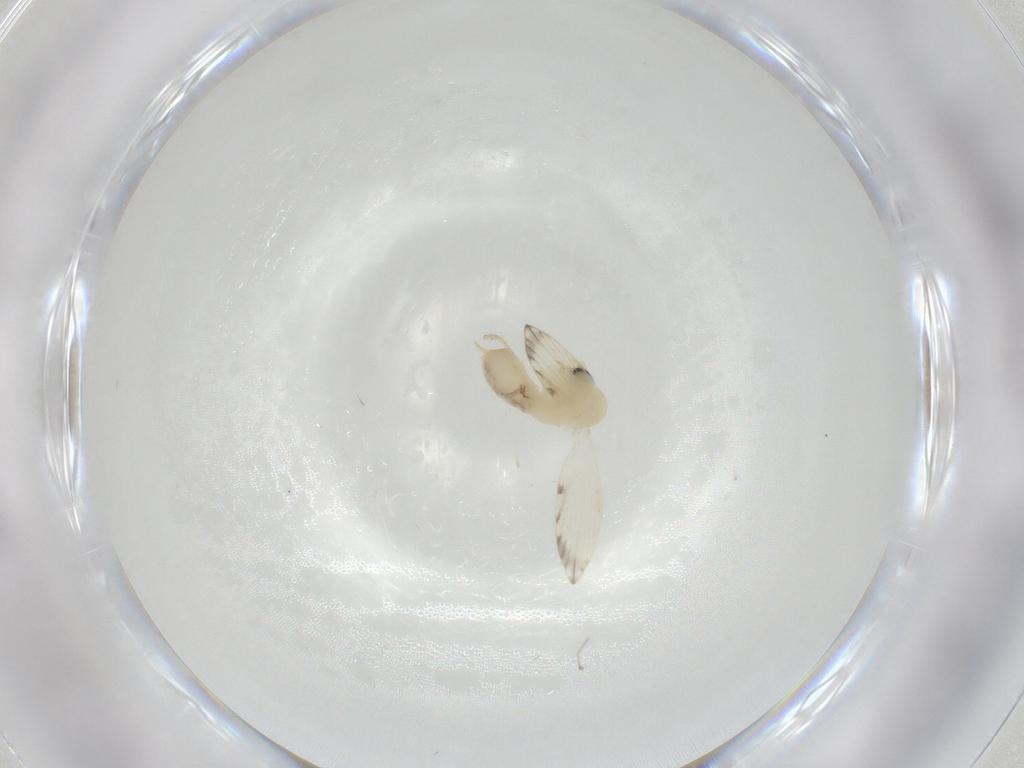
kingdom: Animalia
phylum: Arthropoda
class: Insecta
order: Diptera
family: Psychodidae
